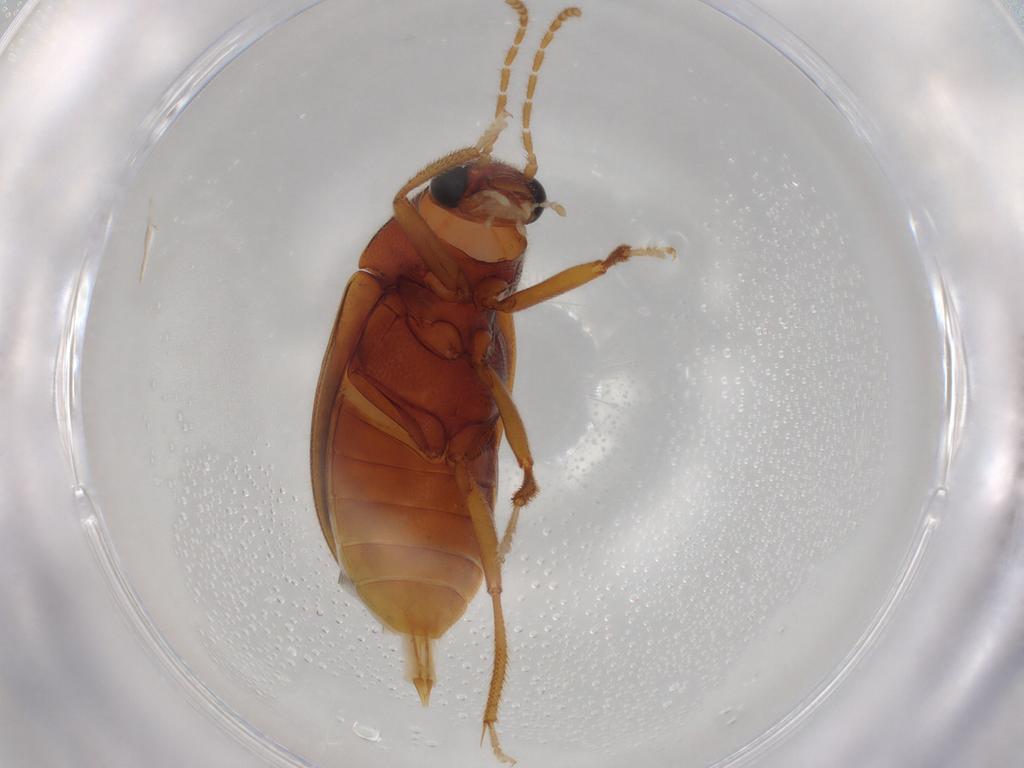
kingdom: Animalia
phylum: Arthropoda
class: Insecta
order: Coleoptera
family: Ptilodactylidae
